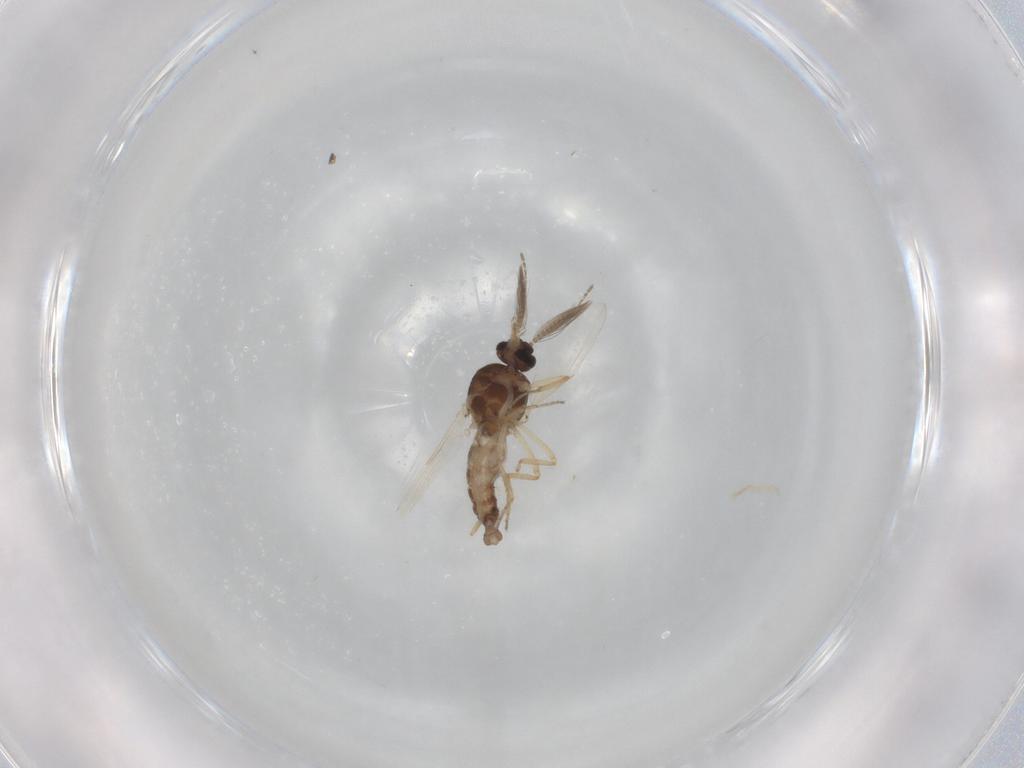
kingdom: Animalia
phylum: Arthropoda
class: Insecta
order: Diptera
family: Ceratopogonidae
